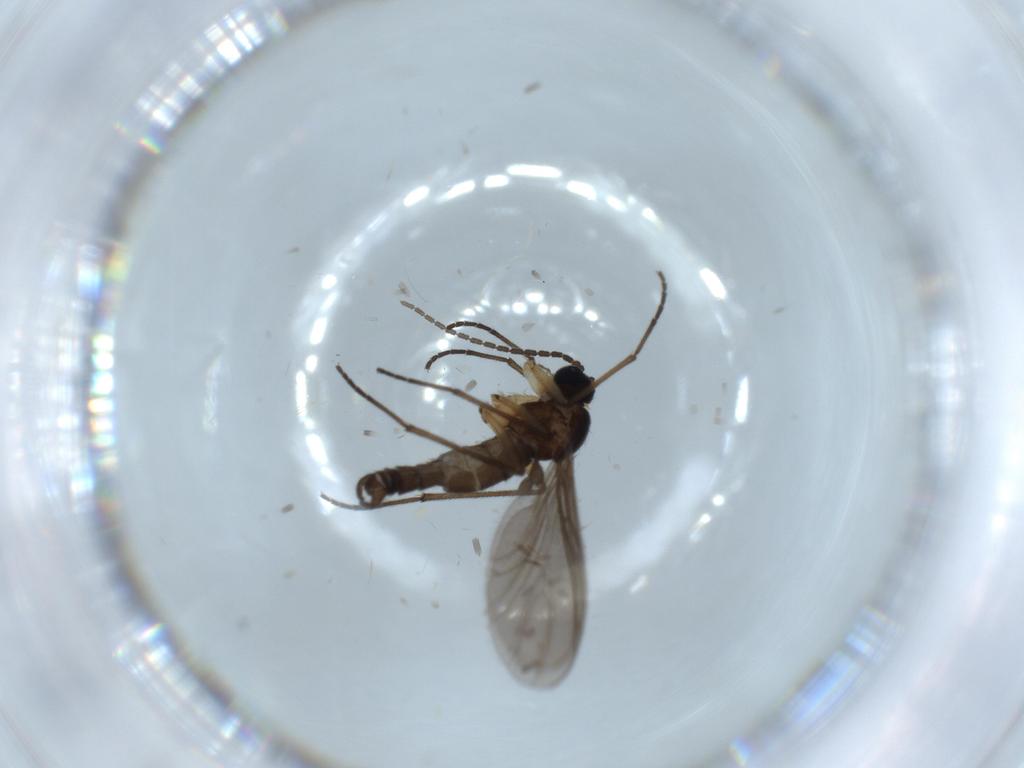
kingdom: Animalia
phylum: Arthropoda
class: Insecta
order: Diptera
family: Sciaridae
